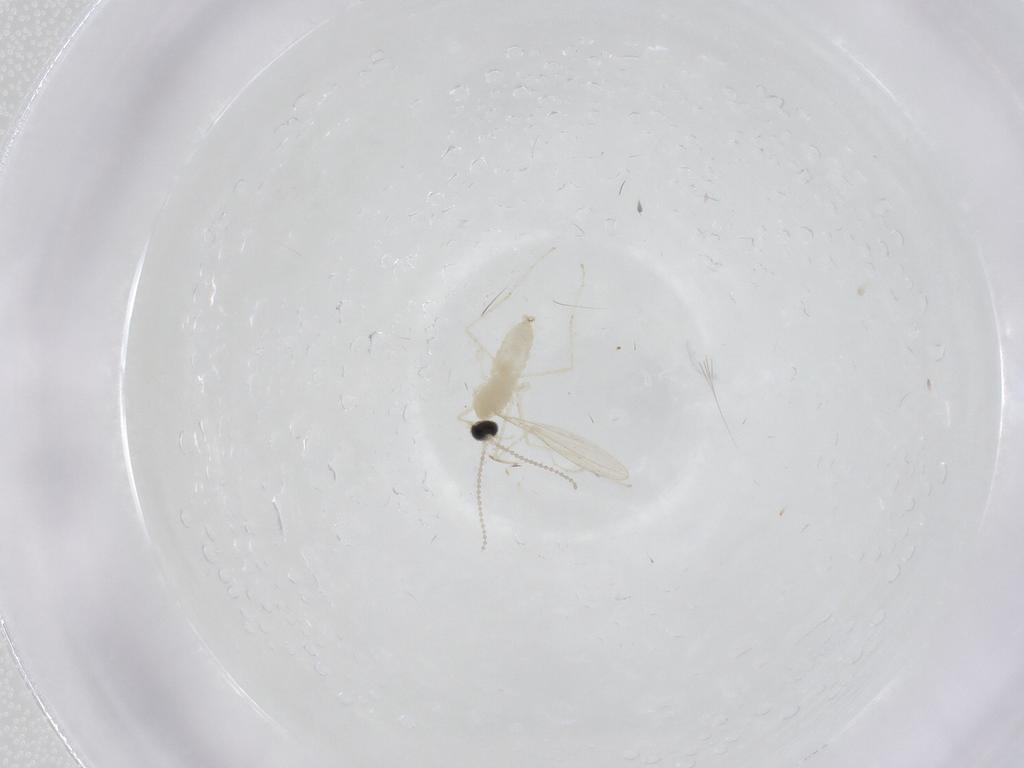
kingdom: Animalia
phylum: Arthropoda
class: Insecta
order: Diptera
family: Cecidomyiidae
